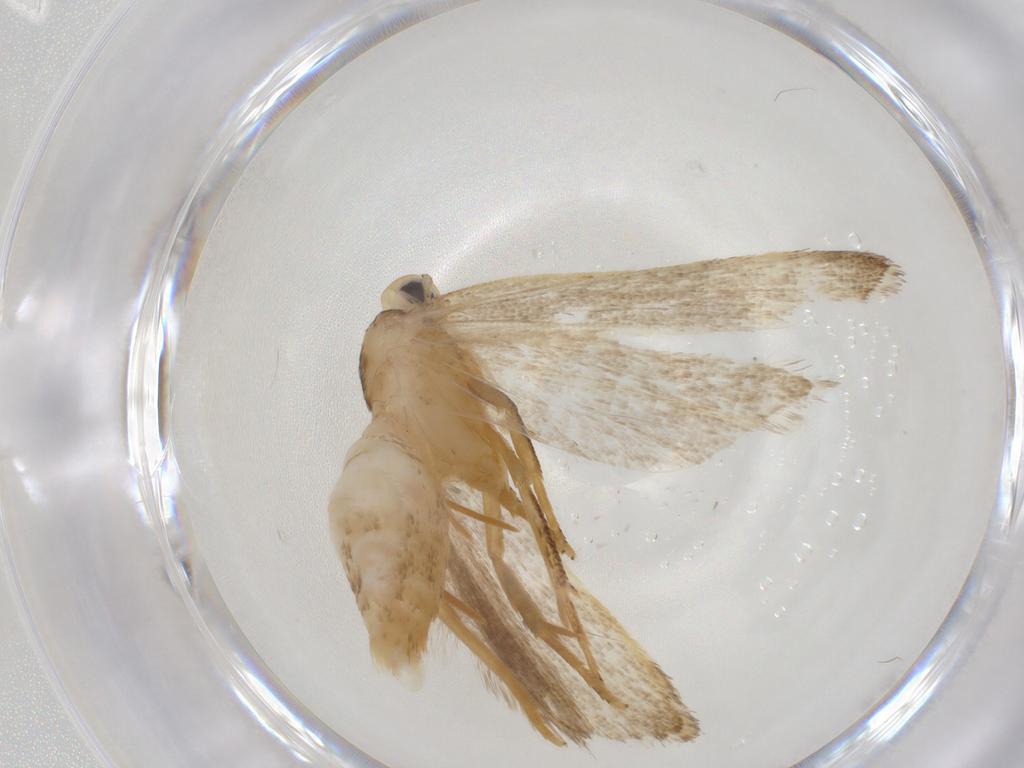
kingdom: Animalia
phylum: Arthropoda
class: Insecta
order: Lepidoptera
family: Gelechiidae
